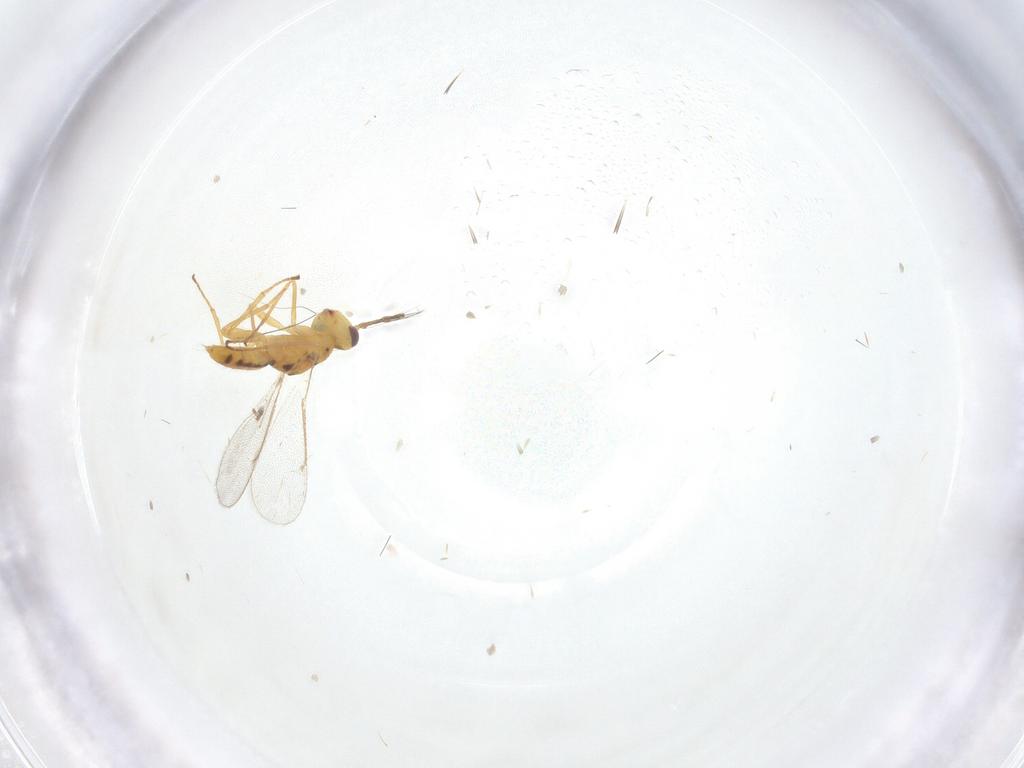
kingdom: Animalia
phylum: Arthropoda
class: Insecta
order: Hymenoptera
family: Eulophidae
